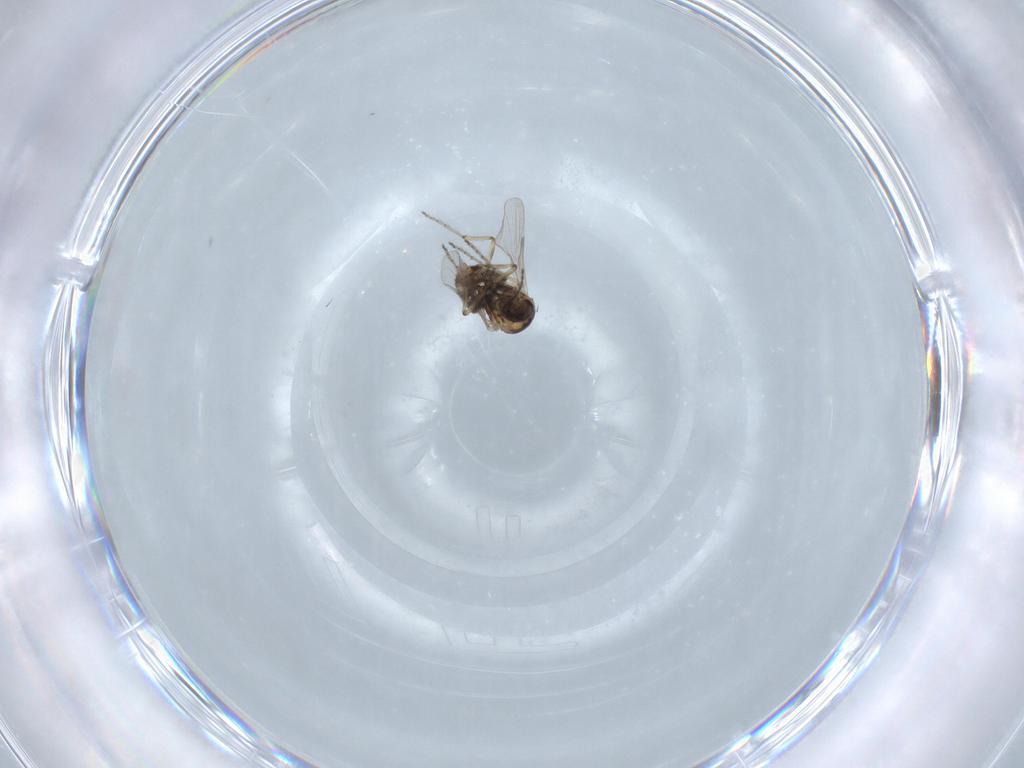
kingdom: Animalia
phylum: Arthropoda
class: Insecta
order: Diptera
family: Ceratopogonidae
